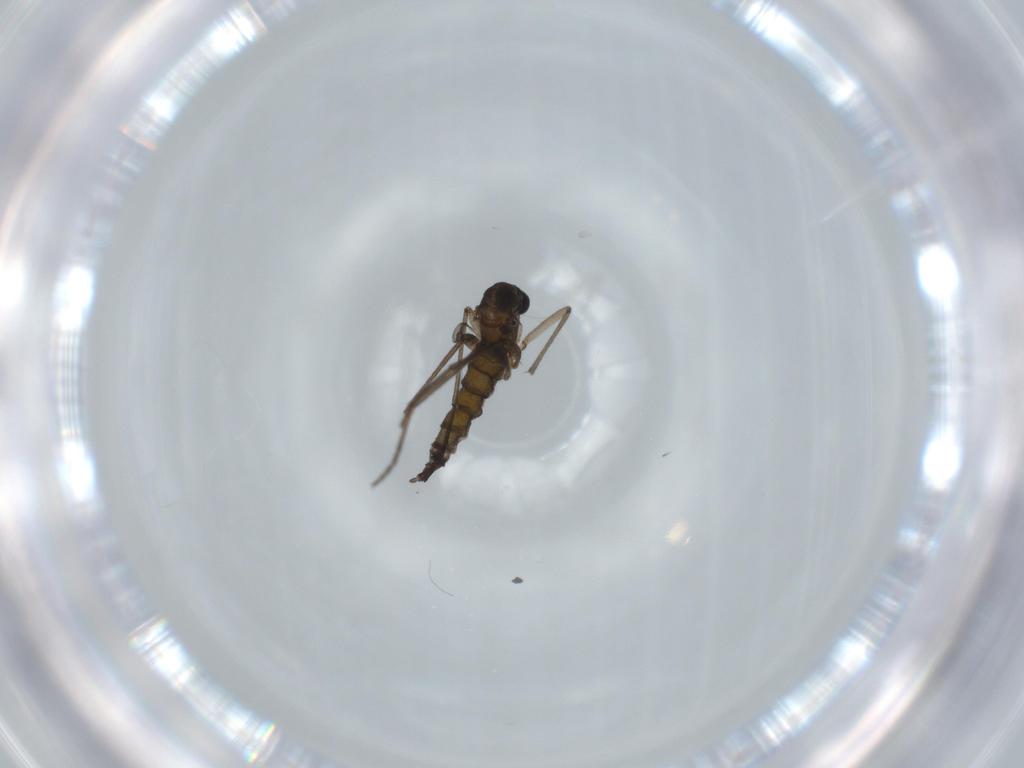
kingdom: Animalia
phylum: Arthropoda
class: Insecta
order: Diptera
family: Sciaridae
